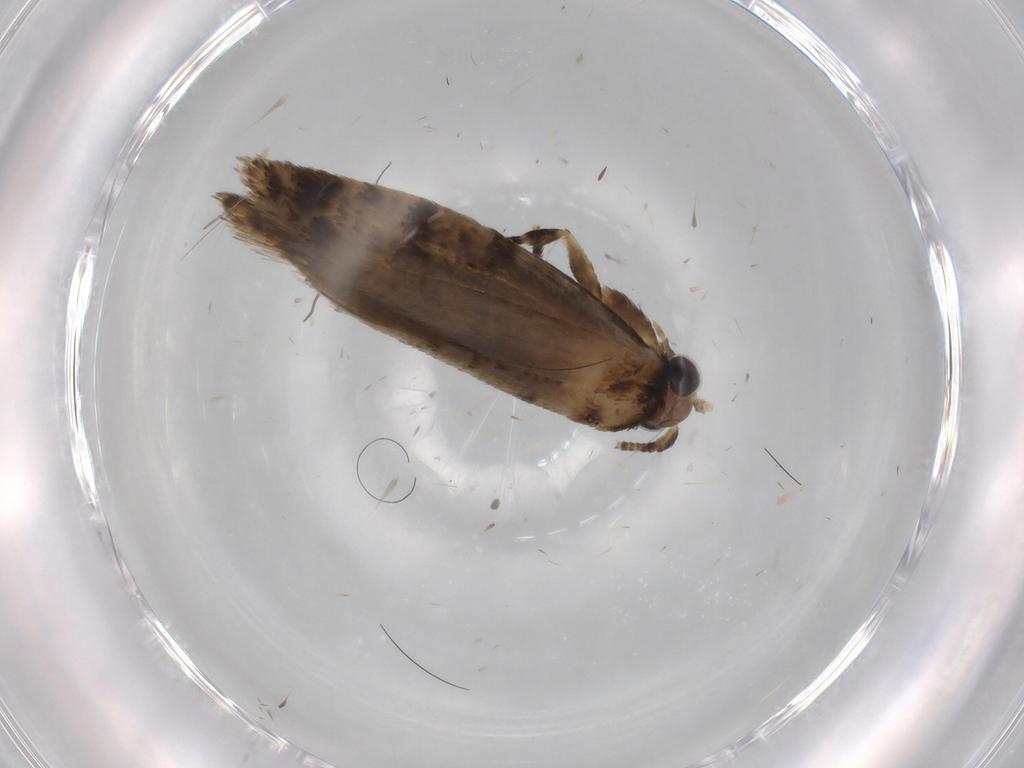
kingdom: Animalia
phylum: Arthropoda
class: Insecta
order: Lepidoptera
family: Tineidae
